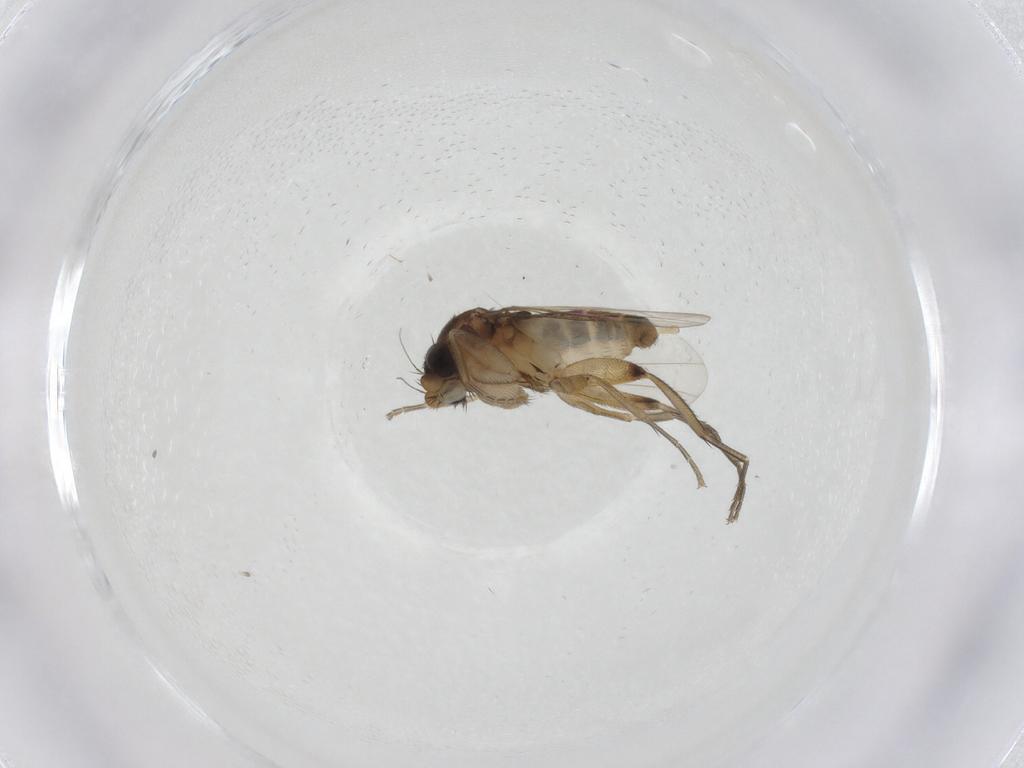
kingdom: Animalia
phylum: Arthropoda
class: Insecta
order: Diptera
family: Phoridae
